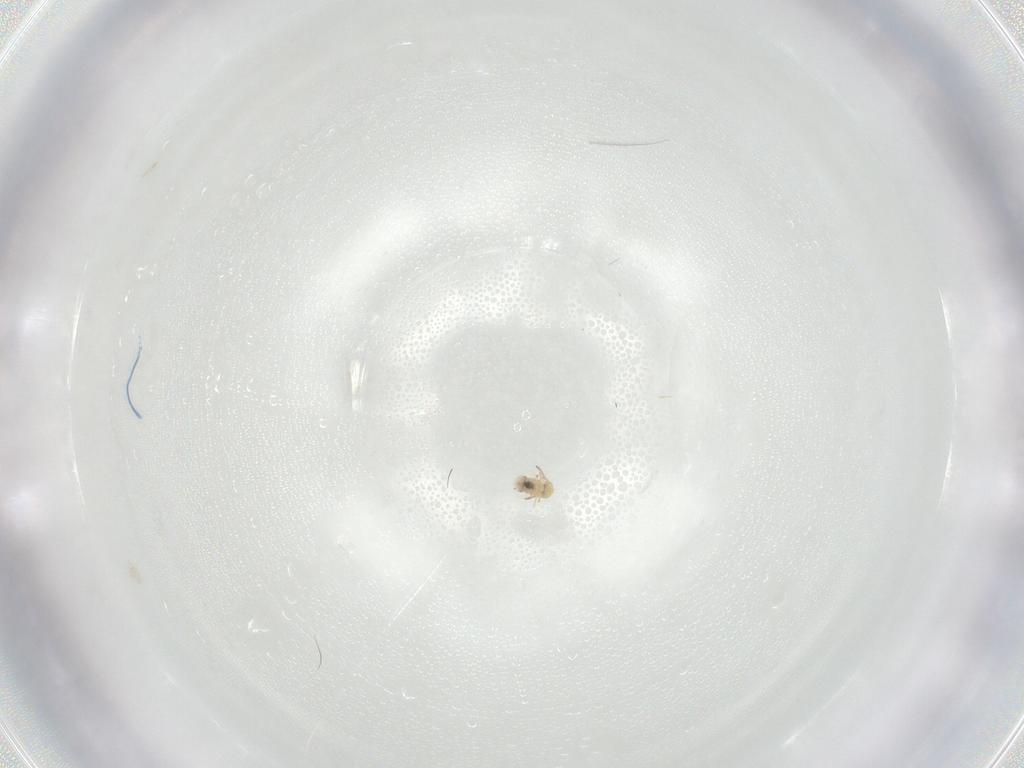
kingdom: Animalia
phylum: Arthropoda
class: Collembola
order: Symphypleona
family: Bourletiellidae
